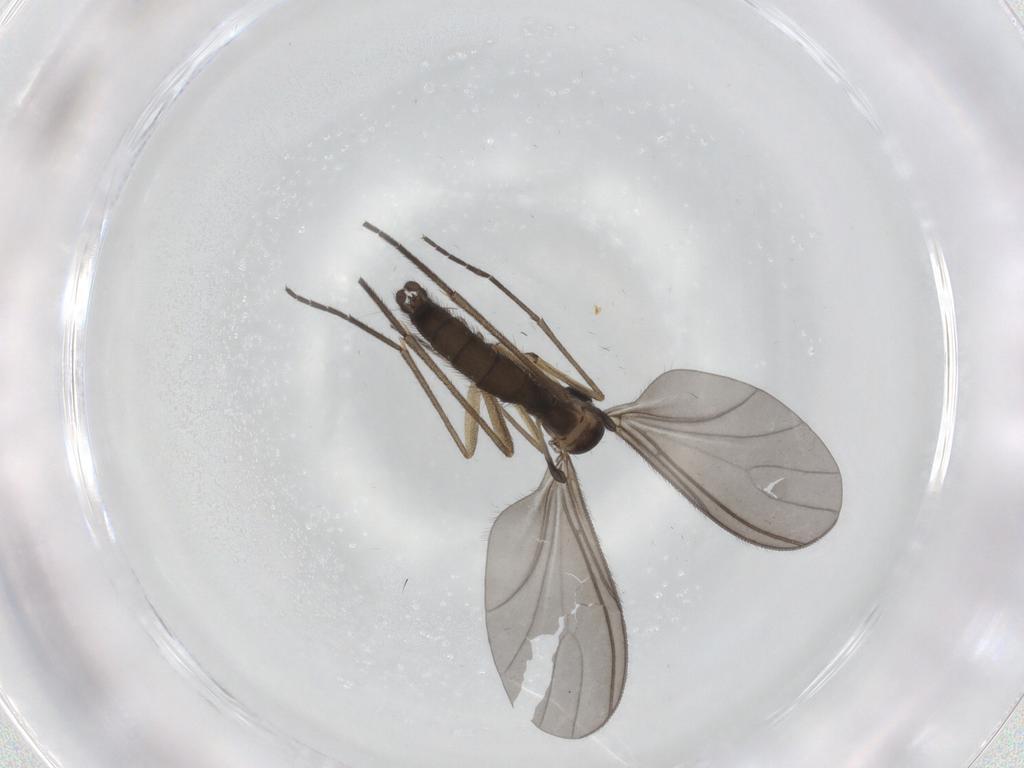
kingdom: Animalia
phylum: Arthropoda
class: Insecta
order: Diptera
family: Sciaridae
